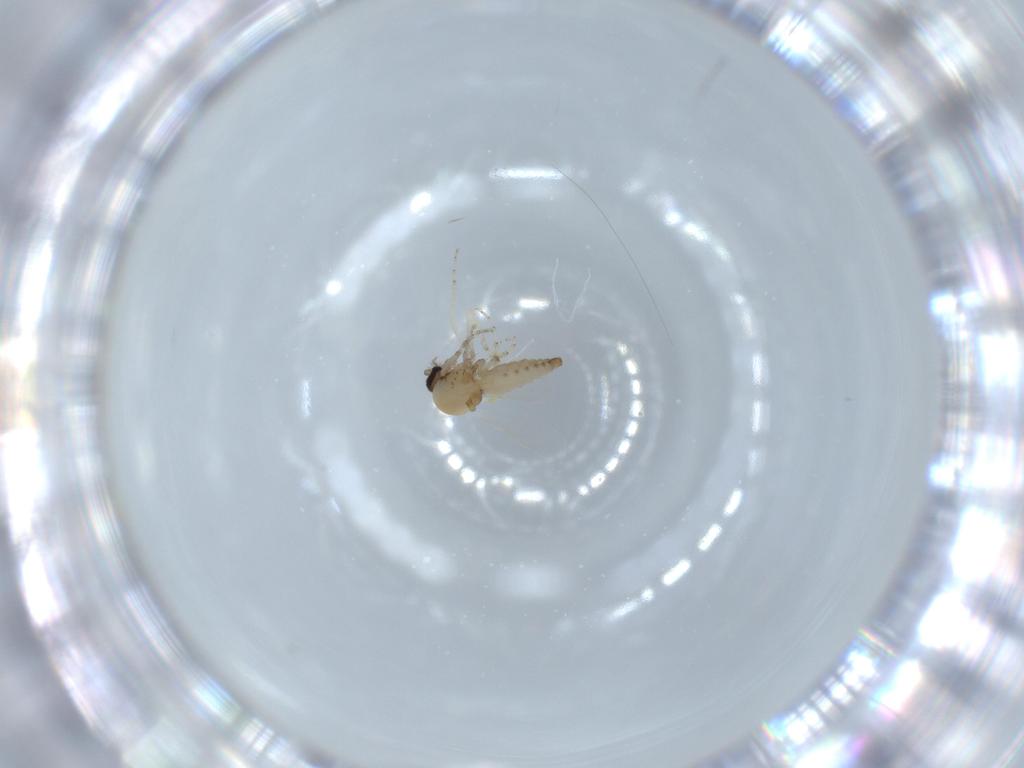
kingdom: Animalia
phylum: Arthropoda
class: Insecta
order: Diptera
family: Ceratopogonidae
